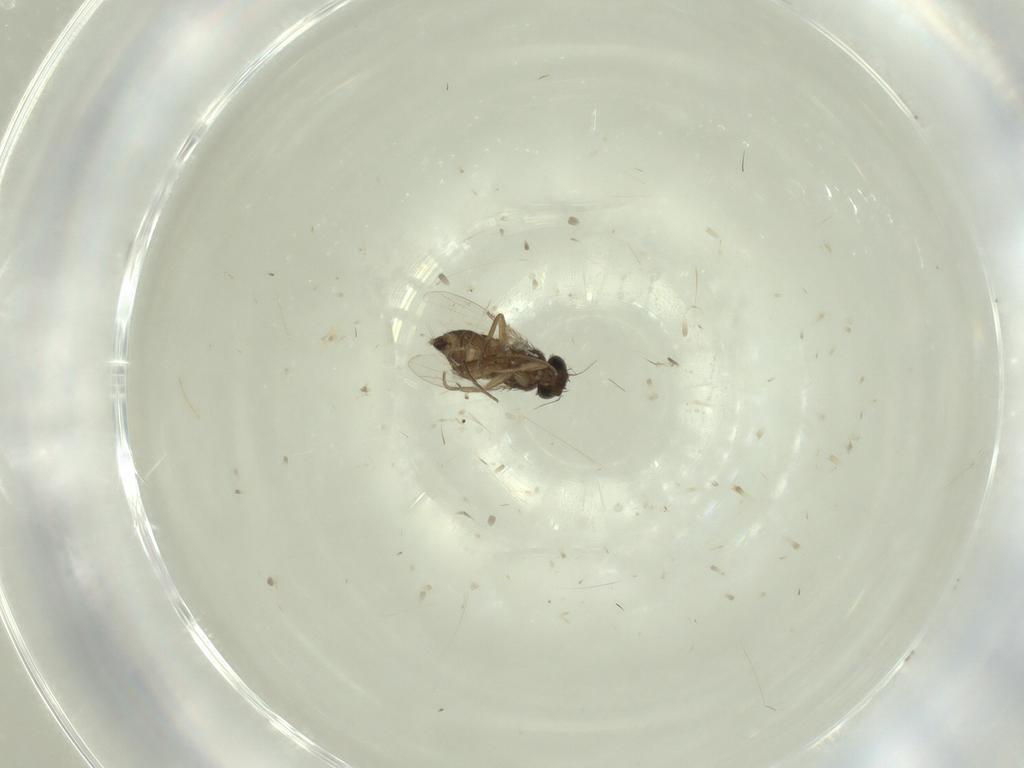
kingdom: Animalia
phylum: Arthropoda
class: Insecta
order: Diptera
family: Phoridae
